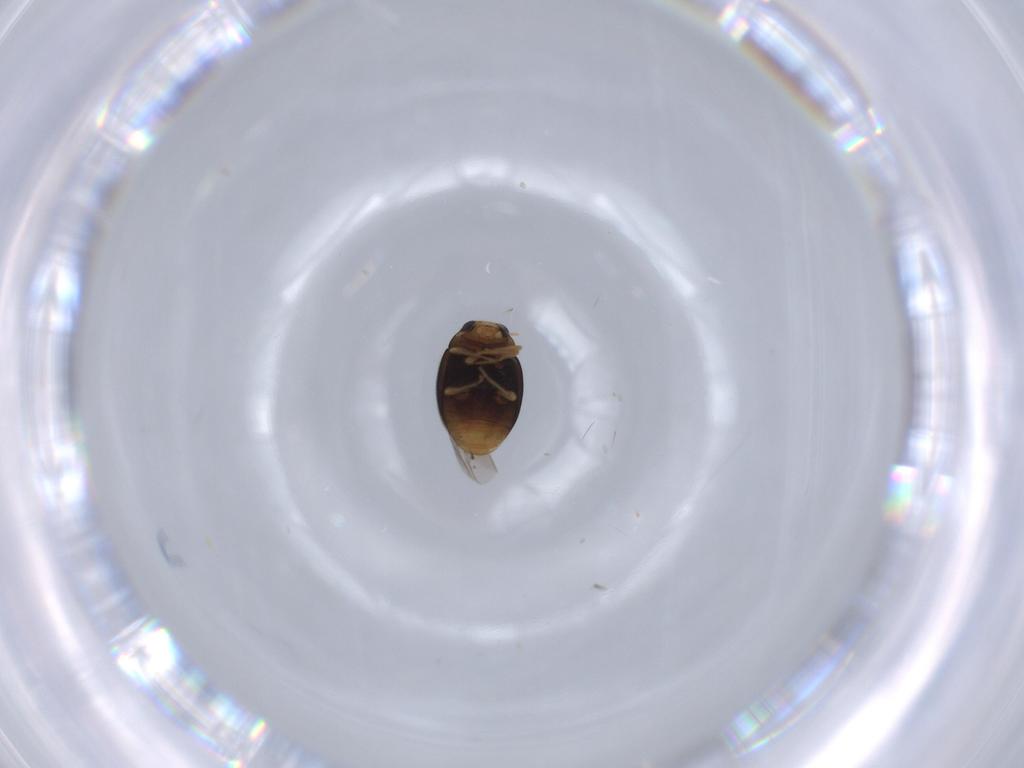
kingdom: Animalia
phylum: Arthropoda
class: Insecta
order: Coleoptera
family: Coccinellidae
